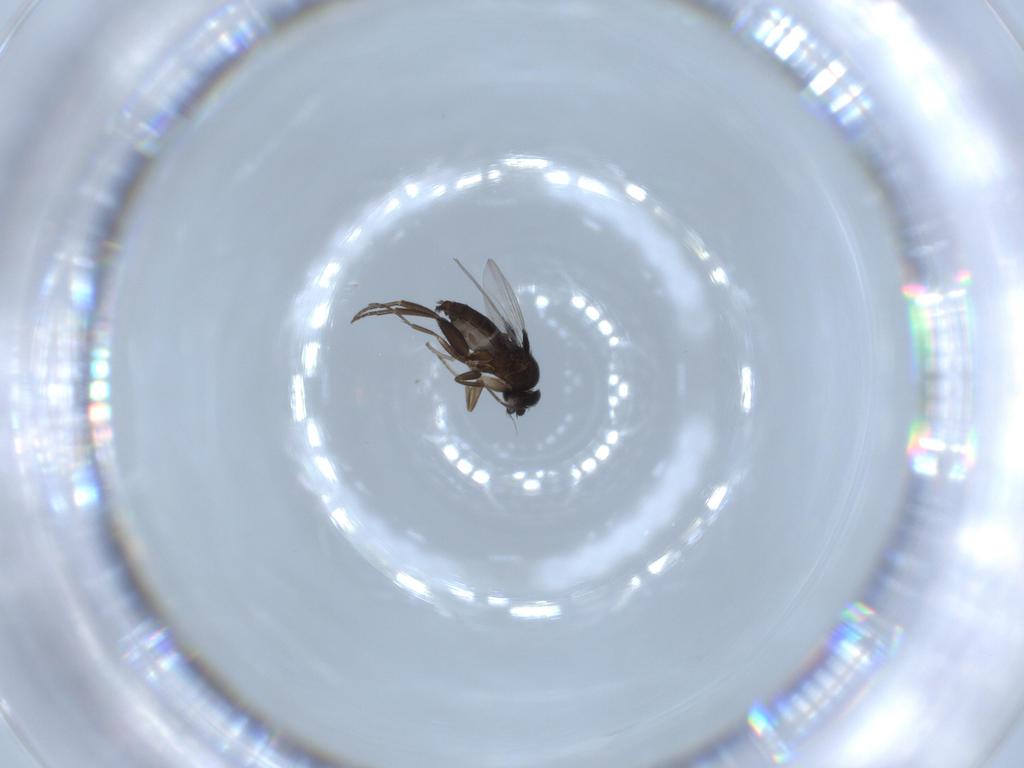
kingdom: Animalia
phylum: Arthropoda
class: Insecta
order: Diptera
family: Phoridae
